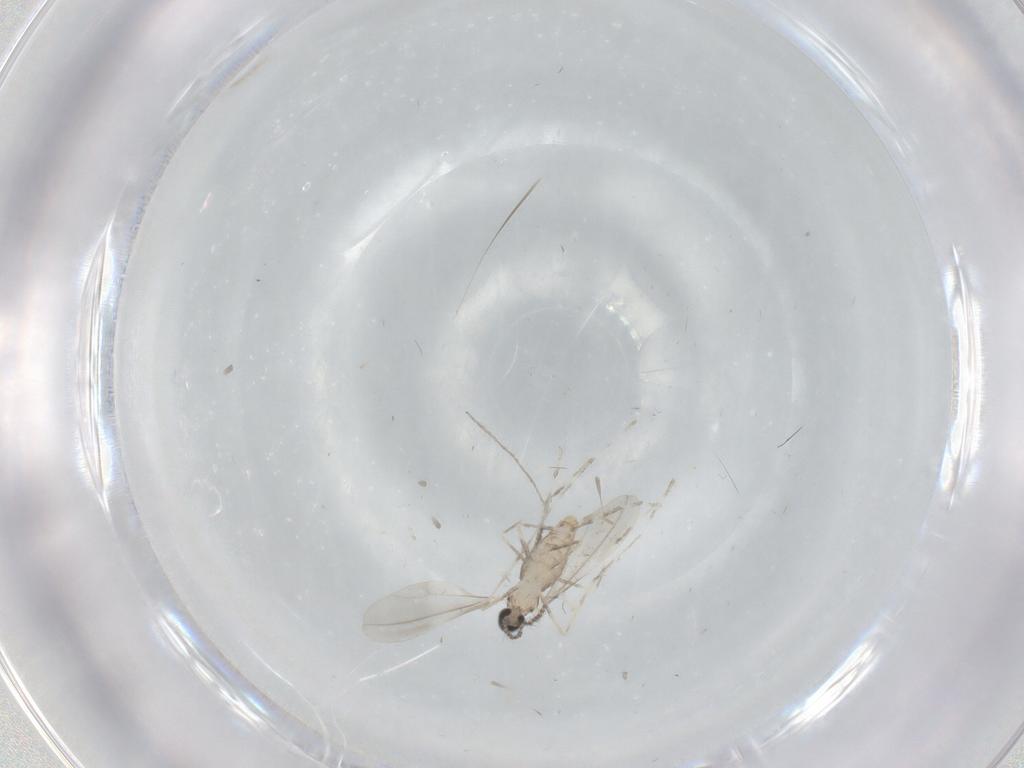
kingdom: Animalia
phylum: Arthropoda
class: Insecta
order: Diptera
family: Cecidomyiidae
